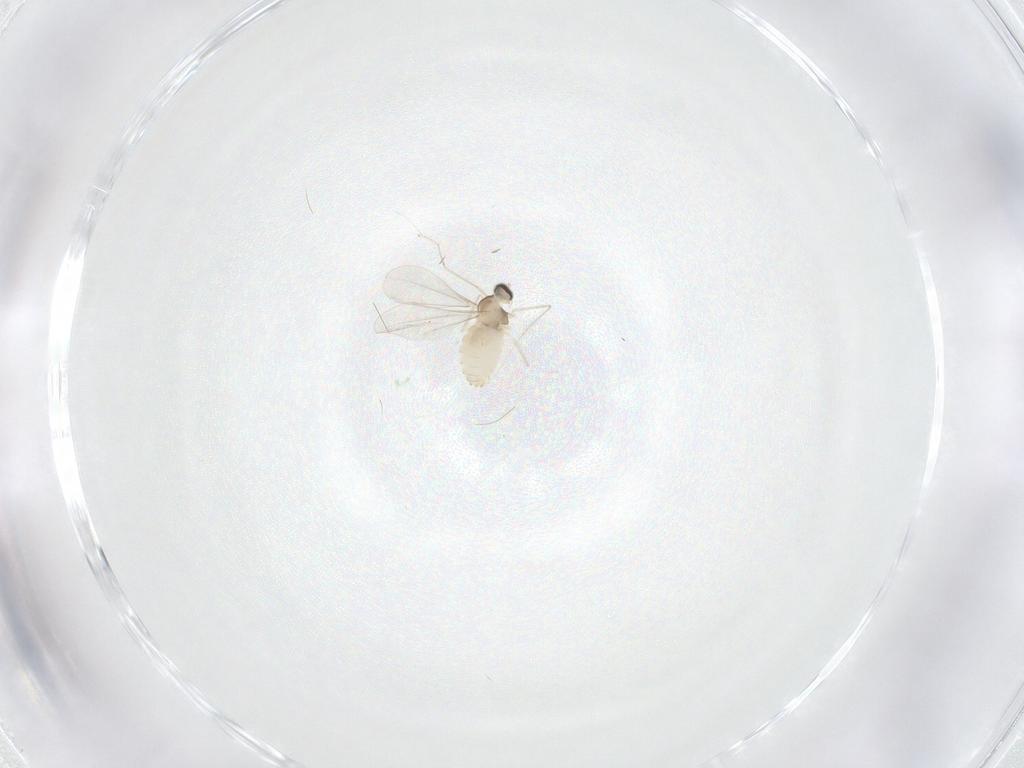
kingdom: Animalia
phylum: Arthropoda
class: Insecta
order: Diptera
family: Cecidomyiidae
